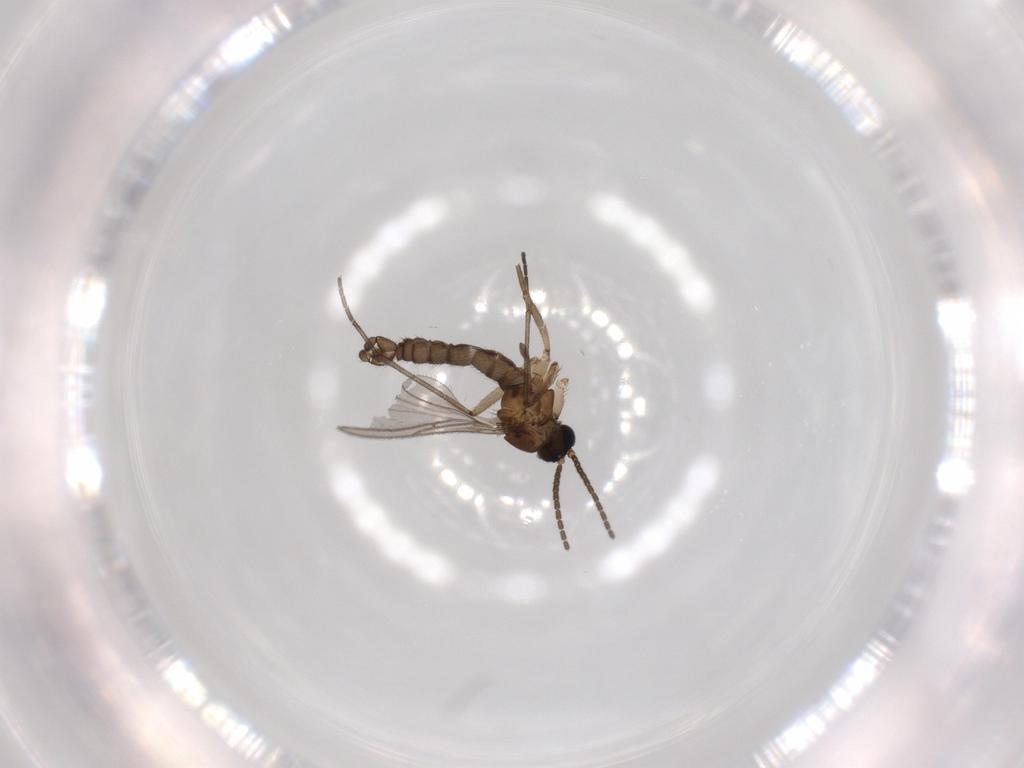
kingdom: Animalia
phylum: Arthropoda
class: Insecta
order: Diptera
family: Sciaridae
